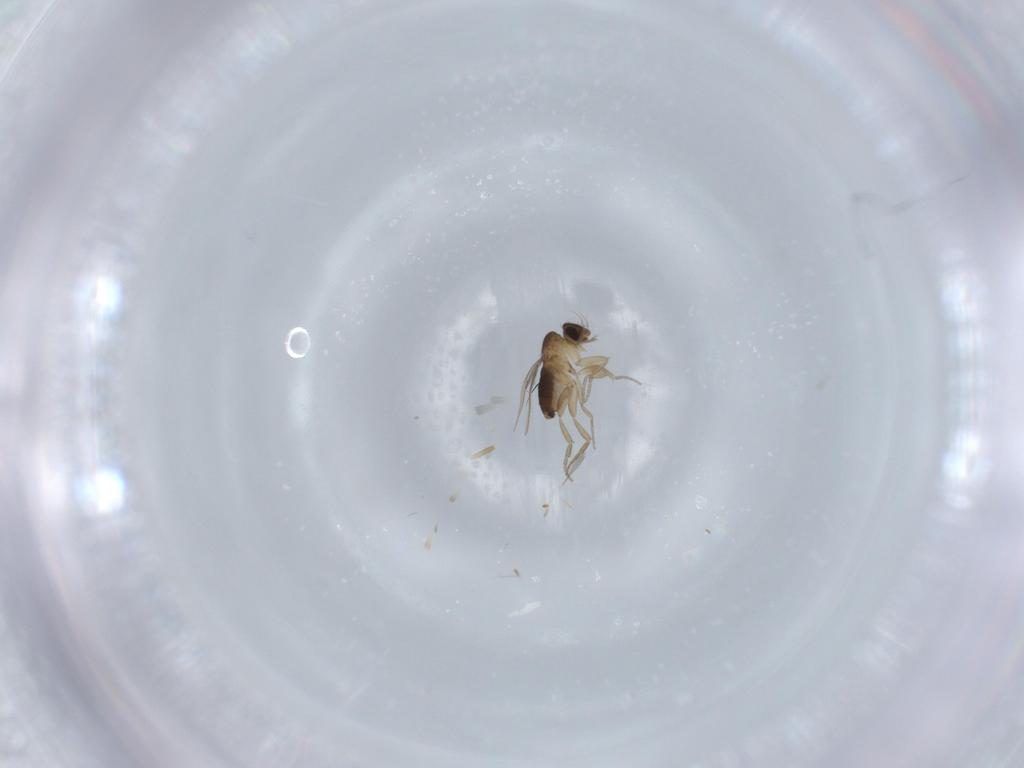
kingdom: Animalia
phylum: Arthropoda
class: Insecta
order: Diptera
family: Phoridae
